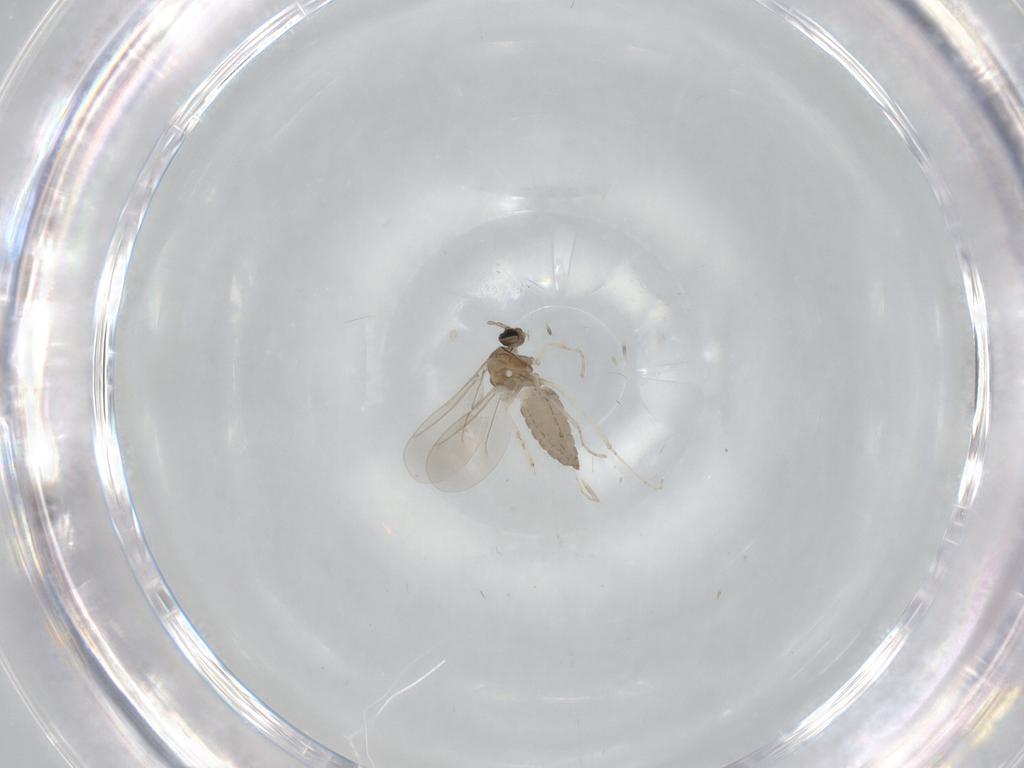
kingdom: Animalia
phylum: Arthropoda
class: Insecta
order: Diptera
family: Cecidomyiidae
